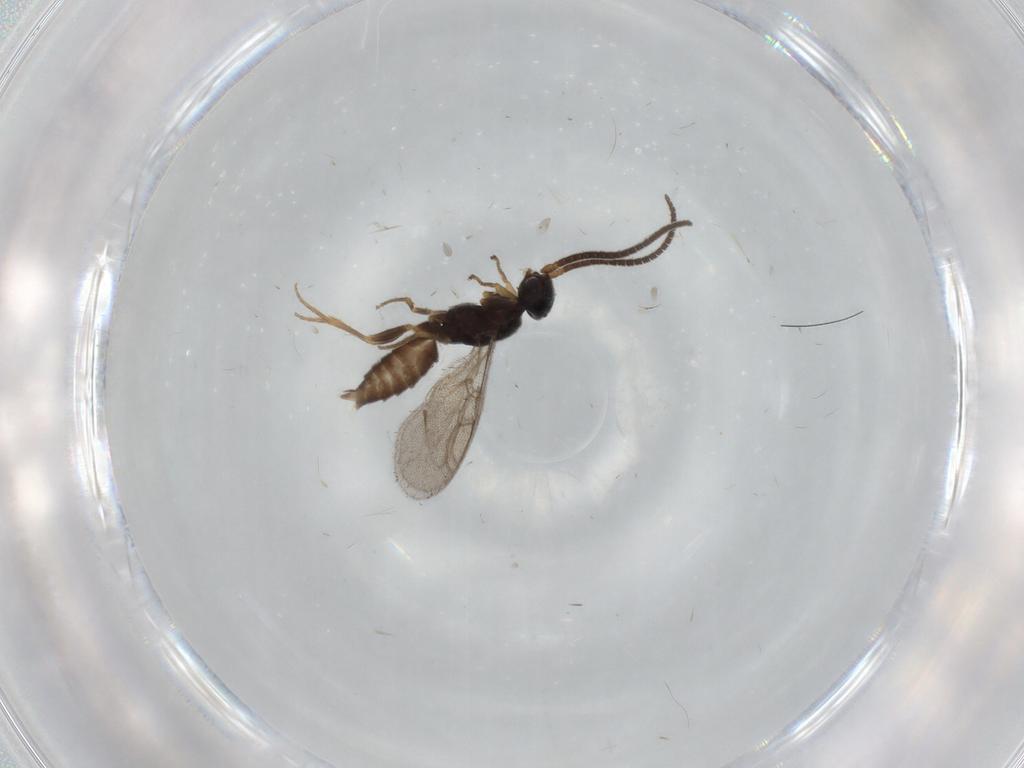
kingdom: Animalia
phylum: Arthropoda
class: Insecta
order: Hymenoptera
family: Sclerogibbidae
